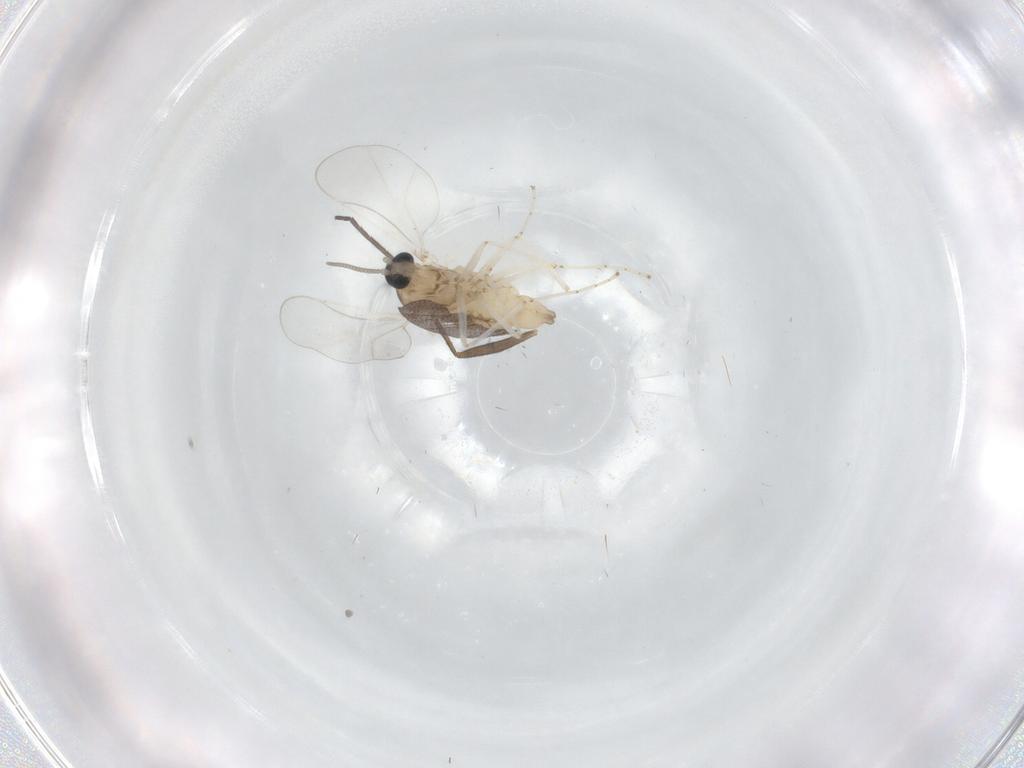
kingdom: Animalia
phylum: Arthropoda
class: Insecta
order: Diptera
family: Cecidomyiidae
